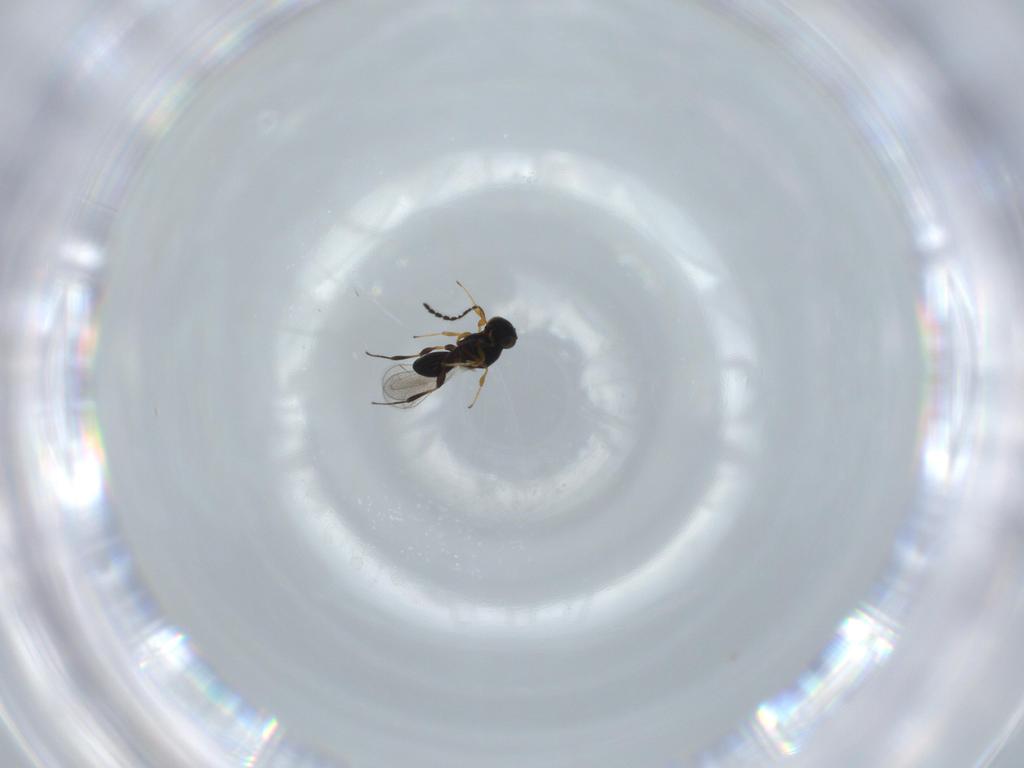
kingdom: Animalia
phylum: Arthropoda
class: Insecta
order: Hymenoptera
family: Platygastridae
